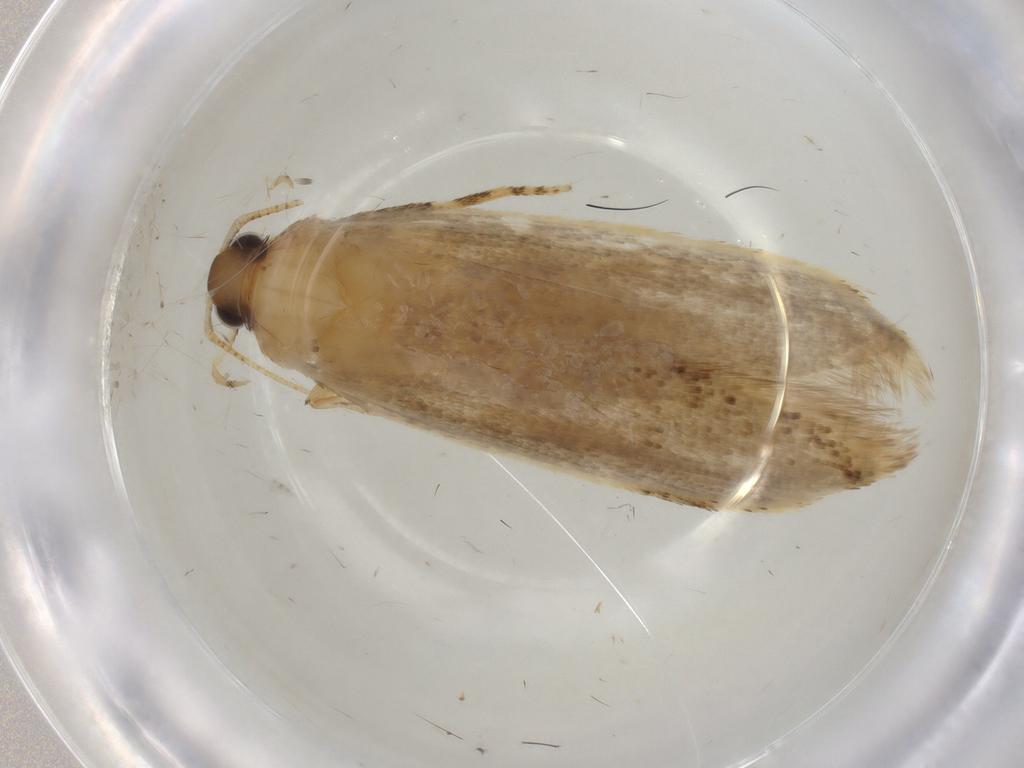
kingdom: Animalia
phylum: Arthropoda
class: Insecta
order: Lepidoptera
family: Gelechiidae
